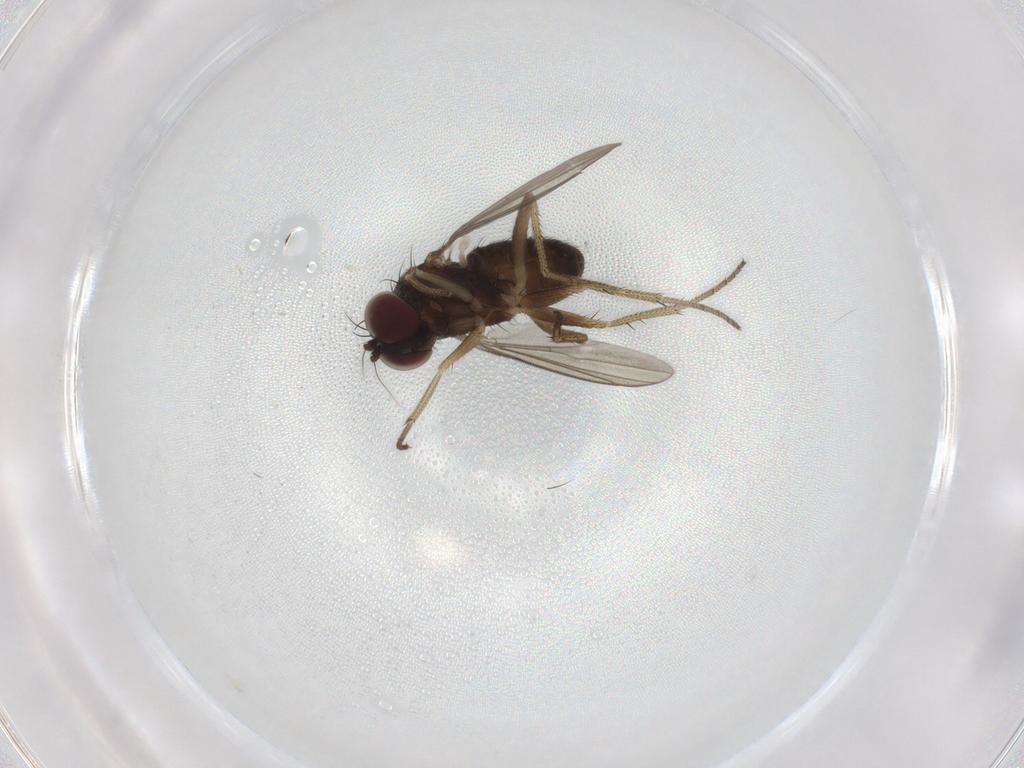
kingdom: Animalia
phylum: Arthropoda
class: Insecta
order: Diptera
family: Dolichopodidae
